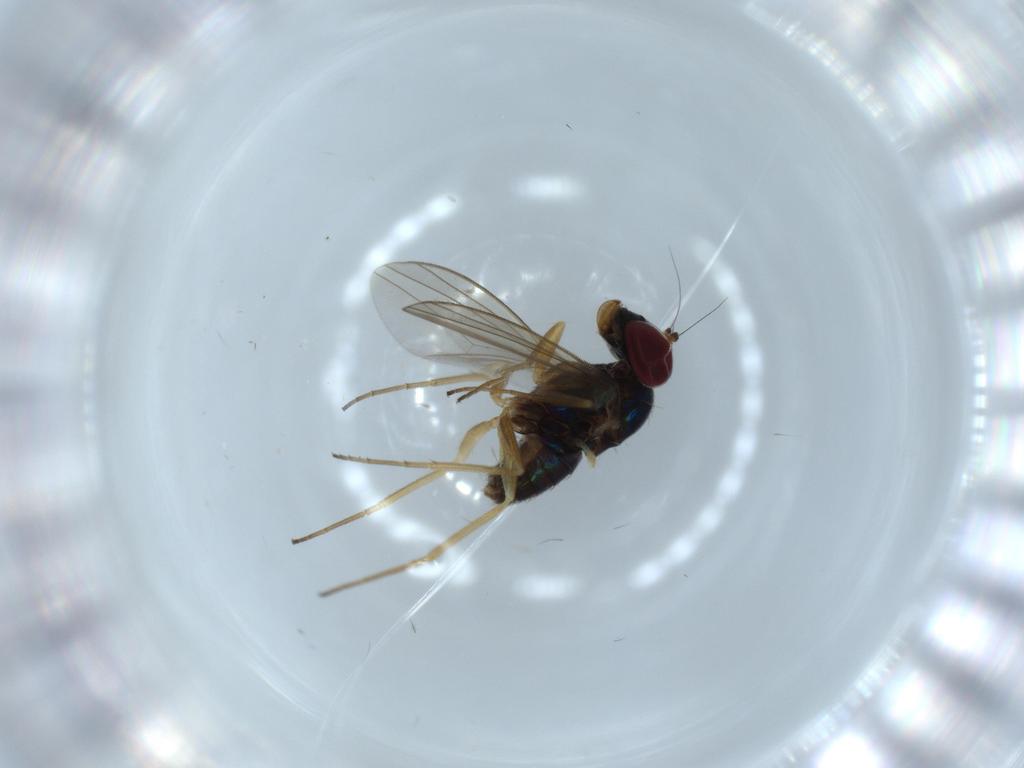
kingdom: Animalia
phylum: Arthropoda
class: Insecta
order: Diptera
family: Dolichopodidae
